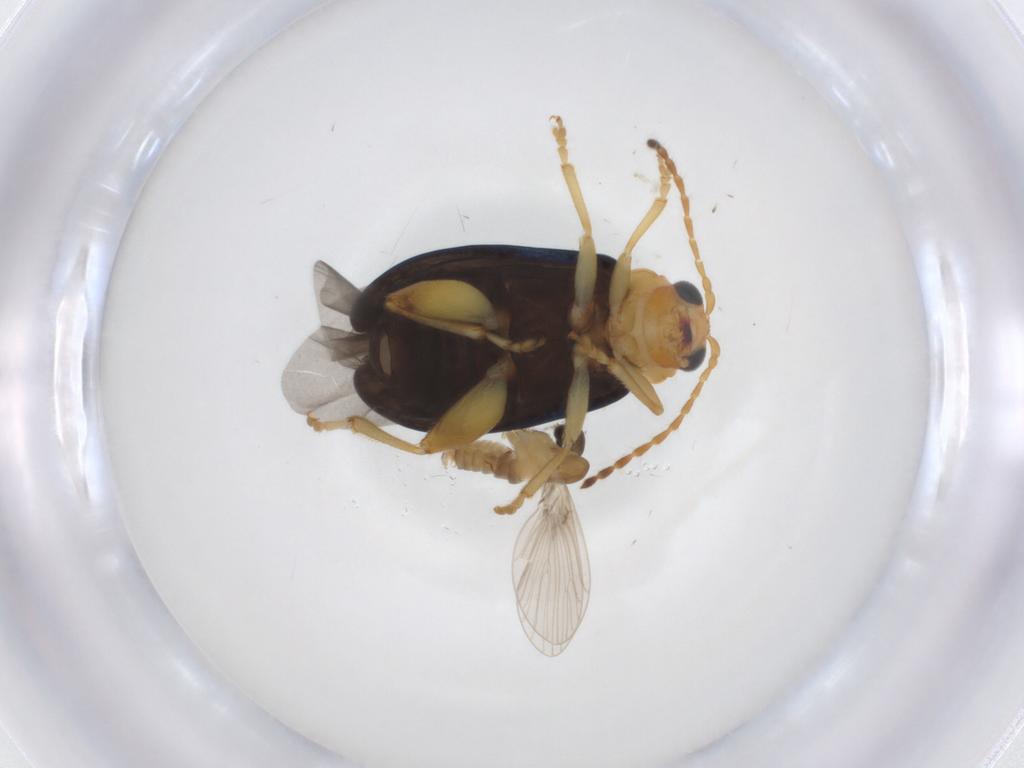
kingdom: Animalia
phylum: Arthropoda
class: Insecta
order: Coleoptera
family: Chrysomelidae
